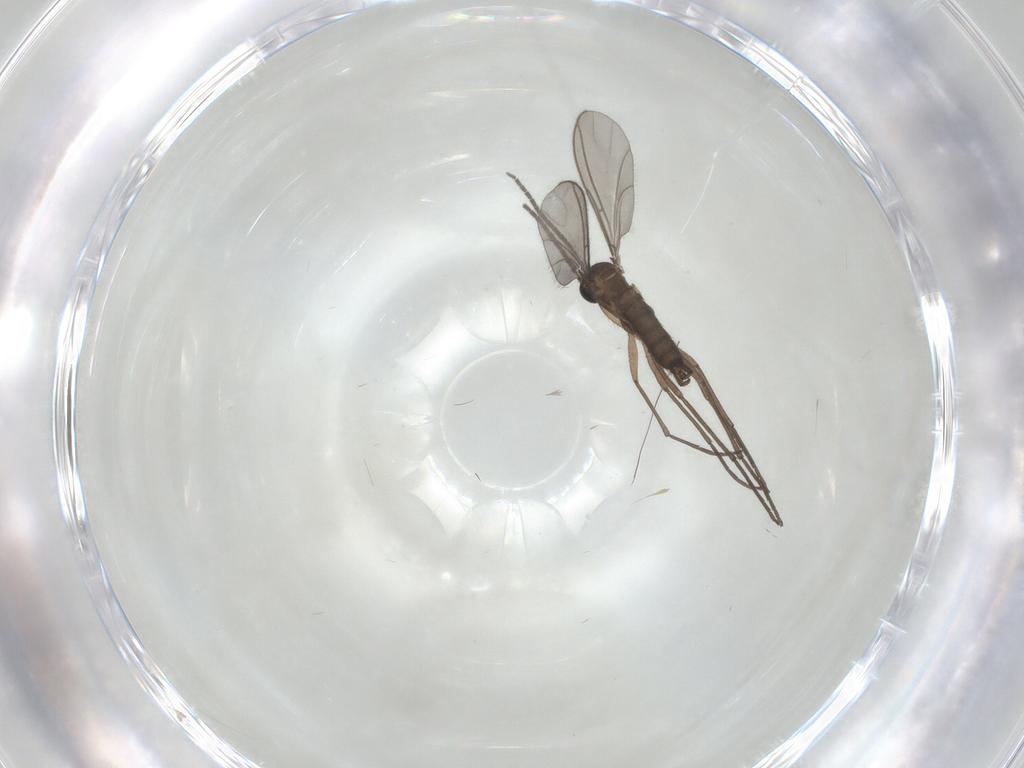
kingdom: Animalia
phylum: Arthropoda
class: Insecta
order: Diptera
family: Sciaridae
